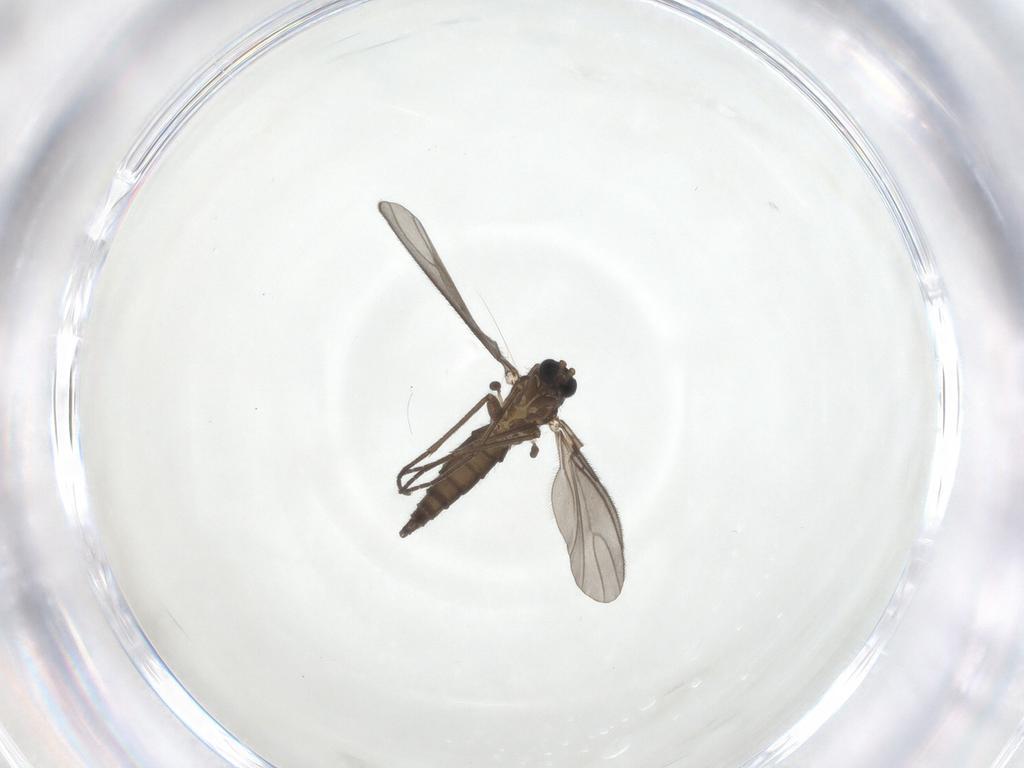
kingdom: Animalia
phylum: Arthropoda
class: Insecta
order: Diptera
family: Sciaridae
